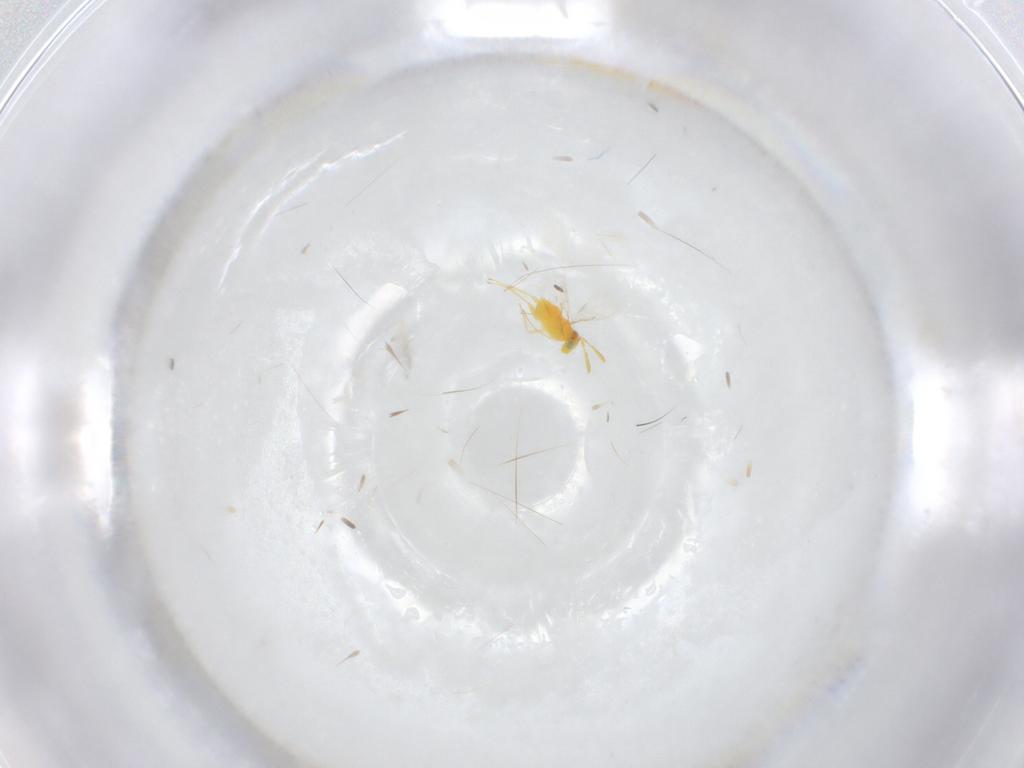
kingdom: Animalia
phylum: Arthropoda
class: Insecta
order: Hymenoptera
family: Aphelinidae
